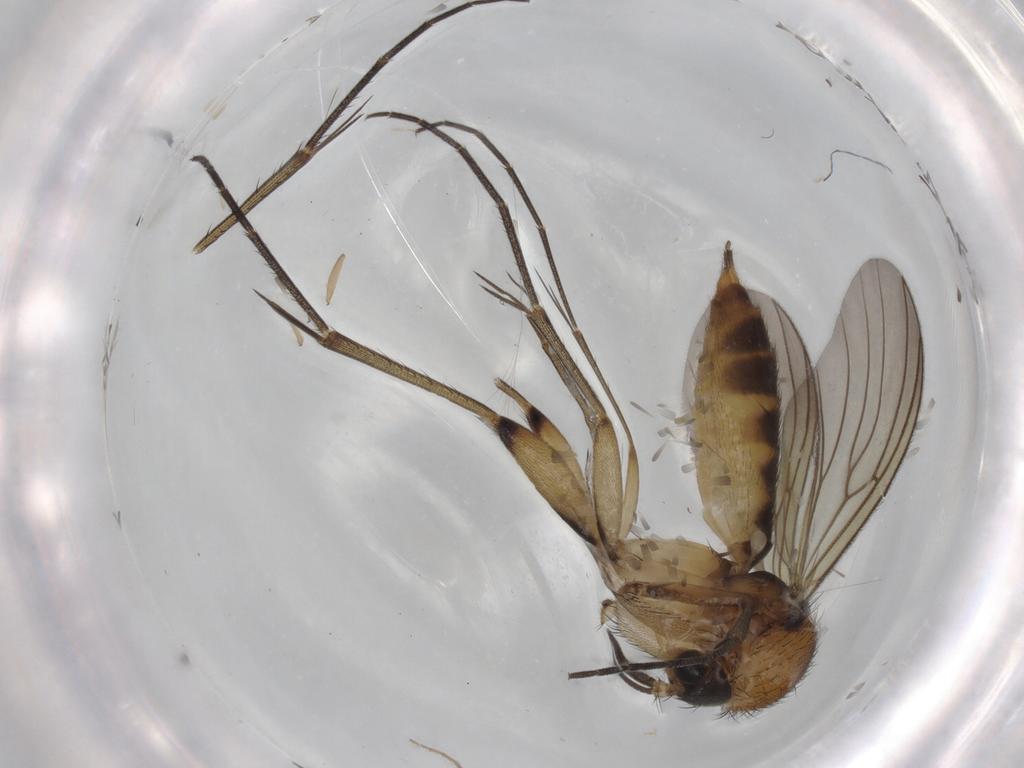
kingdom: Animalia
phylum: Arthropoda
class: Insecta
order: Diptera
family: Mycetophilidae
